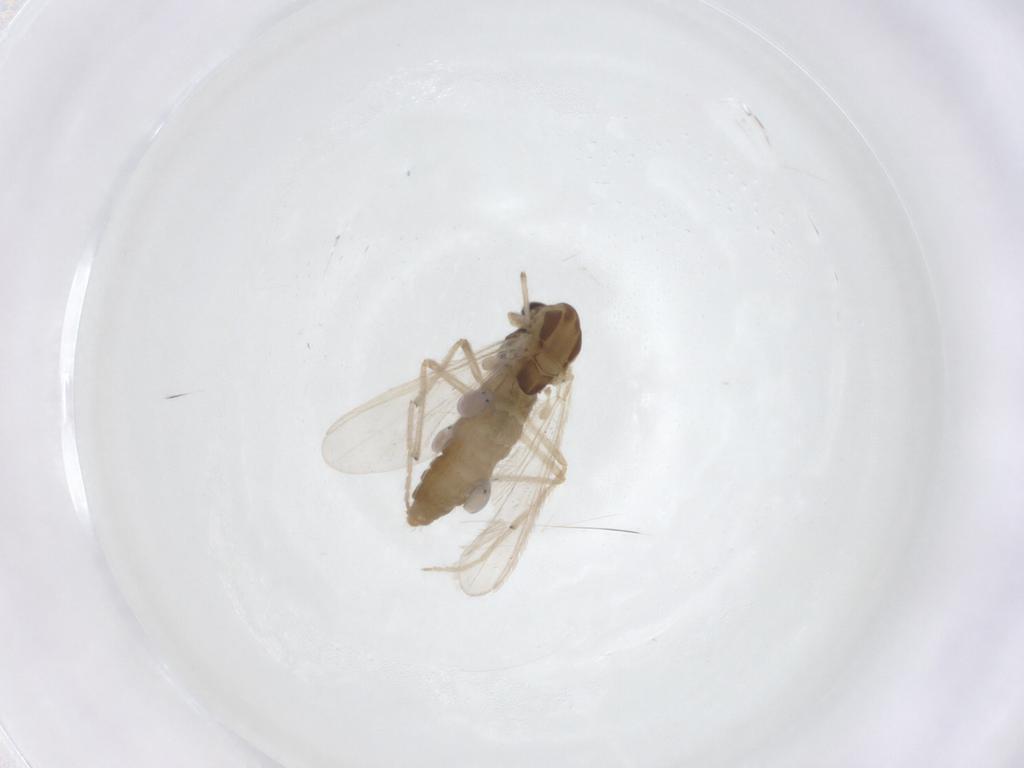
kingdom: Animalia
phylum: Arthropoda
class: Insecta
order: Diptera
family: Chironomidae
